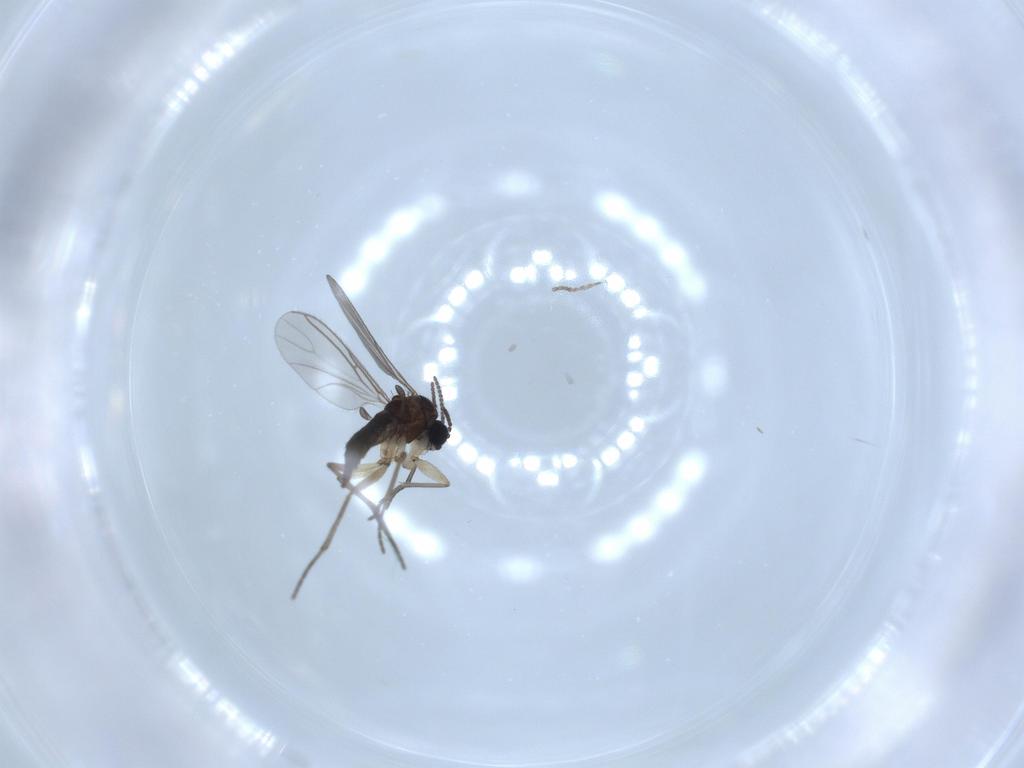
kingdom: Animalia
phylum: Arthropoda
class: Insecta
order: Diptera
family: Sciaridae
